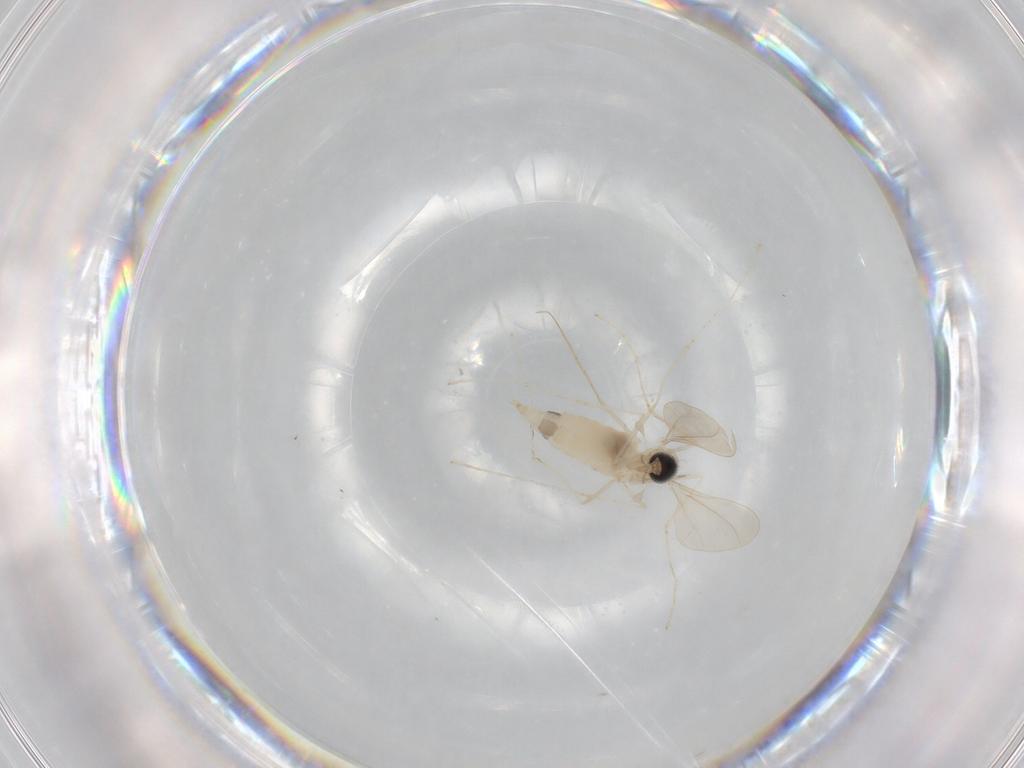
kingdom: Animalia
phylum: Arthropoda
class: Insecta
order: Diptera
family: Cecidomyiidae
